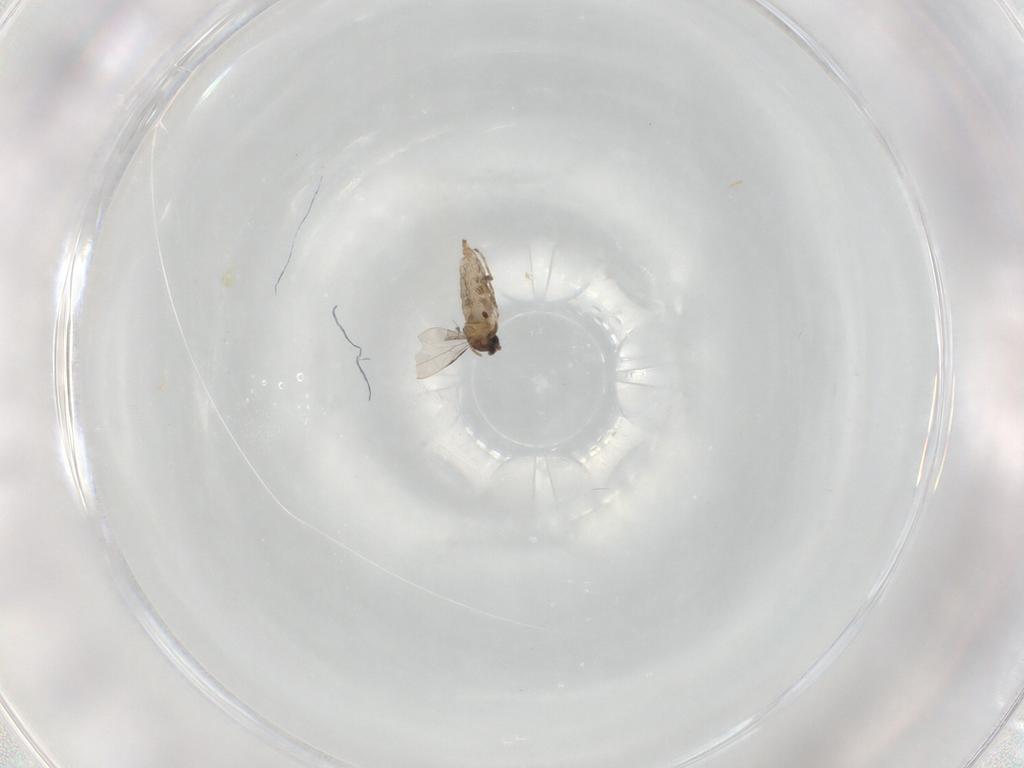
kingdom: Animalia
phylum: Arthropoda
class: Insecta
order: Diptera
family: Cecidomyiidae
